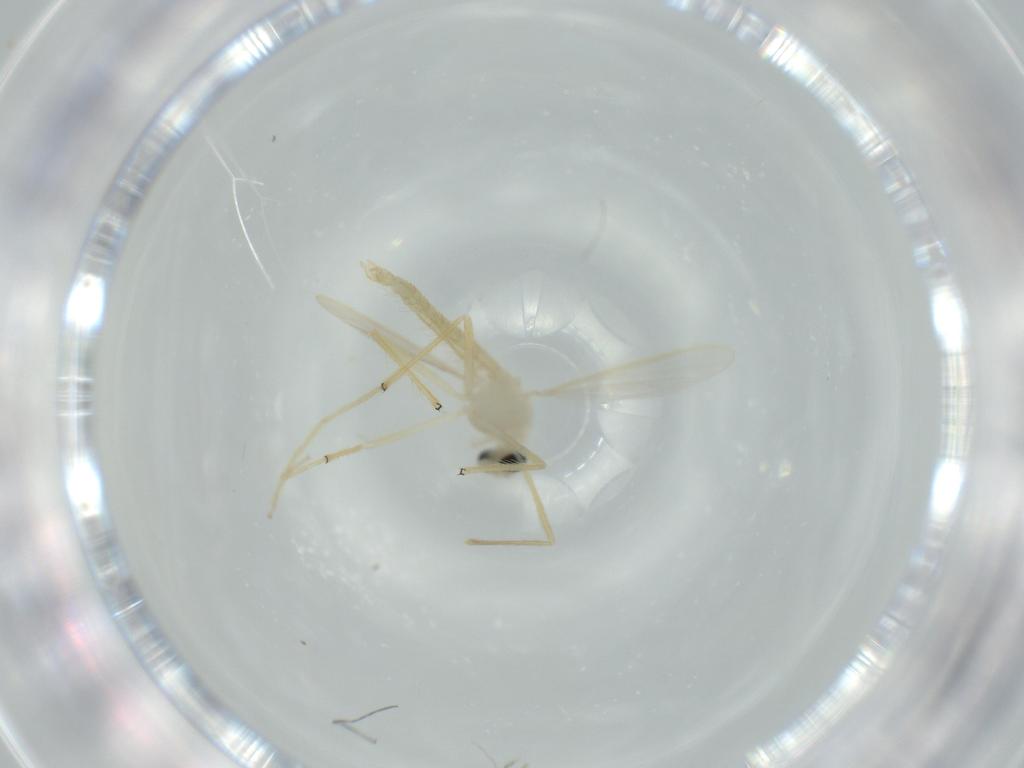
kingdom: Animalia
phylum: Arthropoda
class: Insecta
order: Diptera
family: Chironomidae
